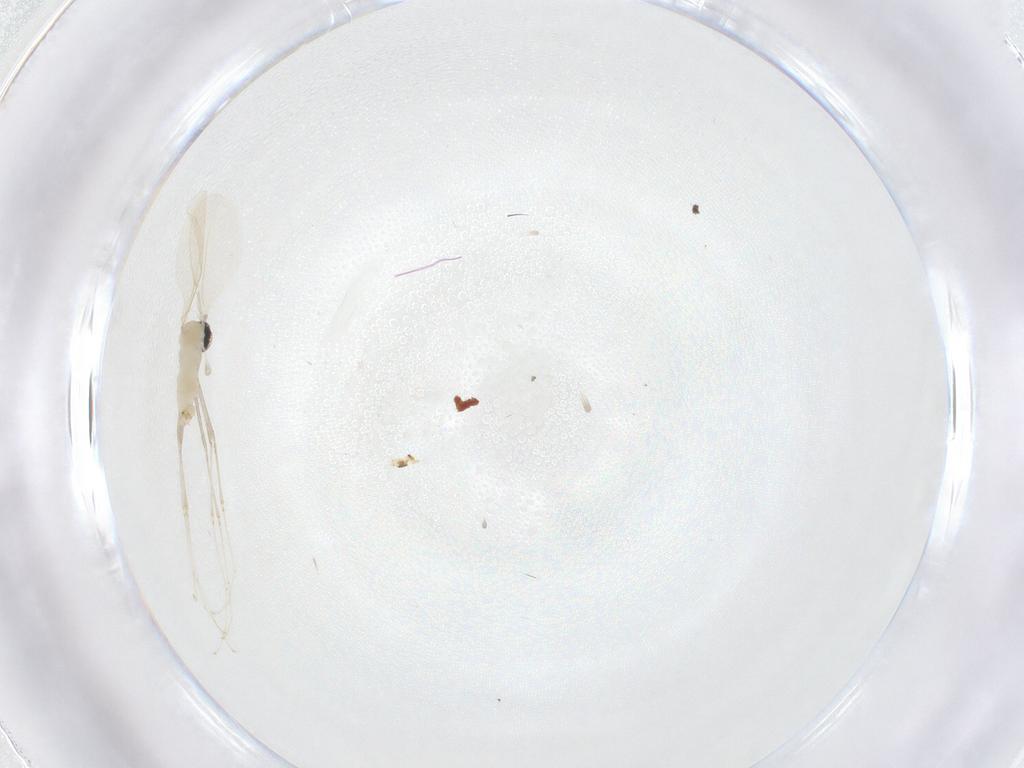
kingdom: Animalia
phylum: Arthropoda
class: Insecta
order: Diptera
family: Cecidomyiidae
